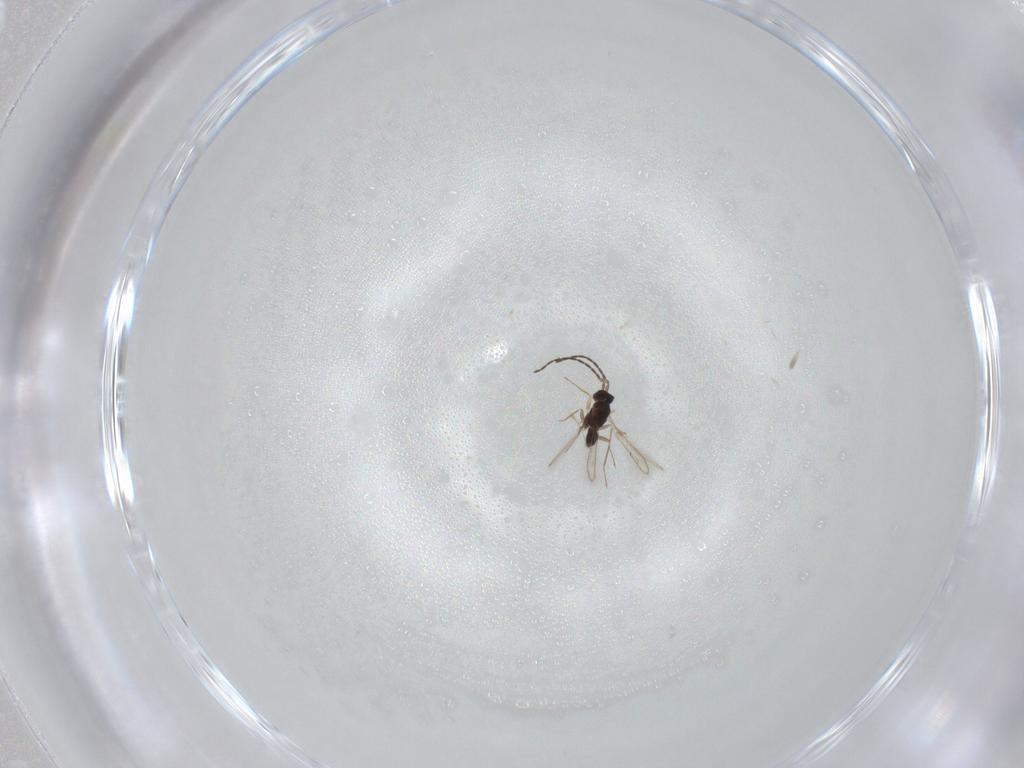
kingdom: Animalia
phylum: Arthropoda
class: Insecta
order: Hymenoptera
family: Mymaridae
